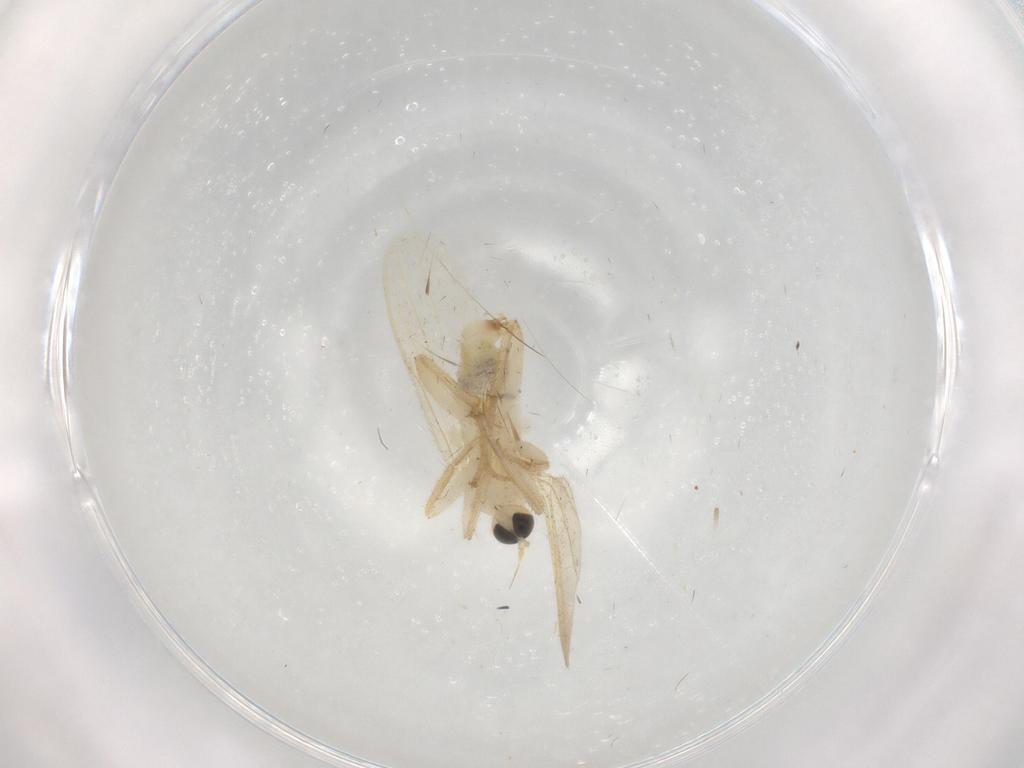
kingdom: Animalia
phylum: Arthropoda
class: Insecta
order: Diptera
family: Hybotidae
